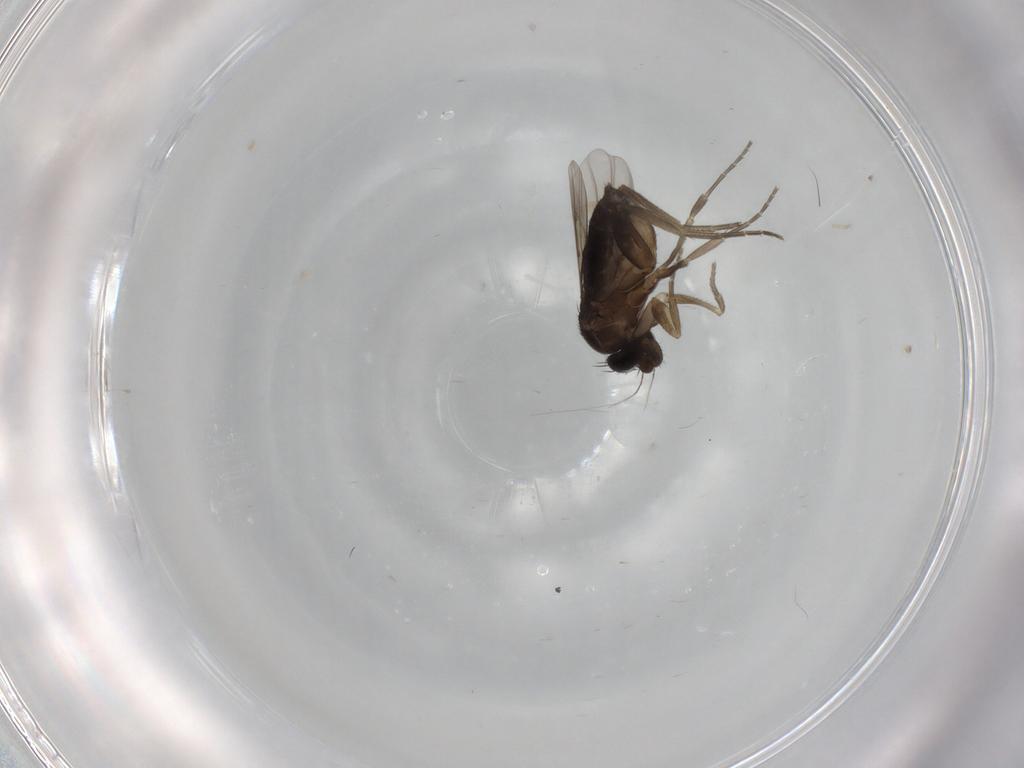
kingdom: Animalia
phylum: Arthropoda
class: Insecta
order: Diptera
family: Phoridae
